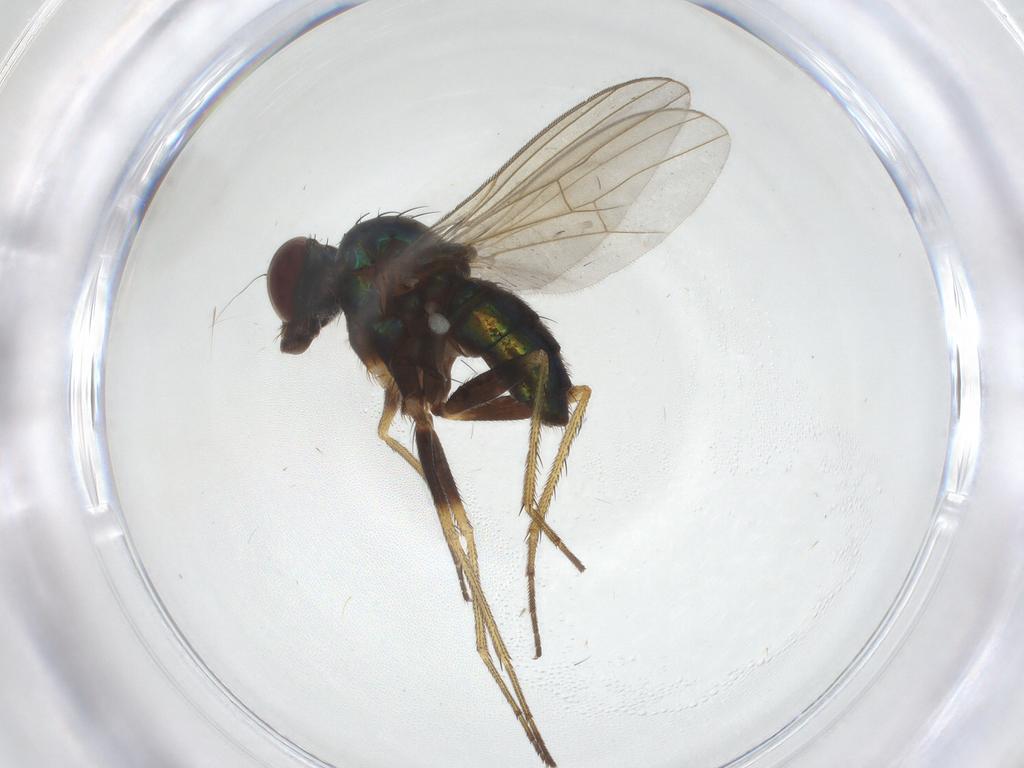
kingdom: Animalia
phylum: Arthropoda
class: Insecta
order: Diptera
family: Dolichopodidae
